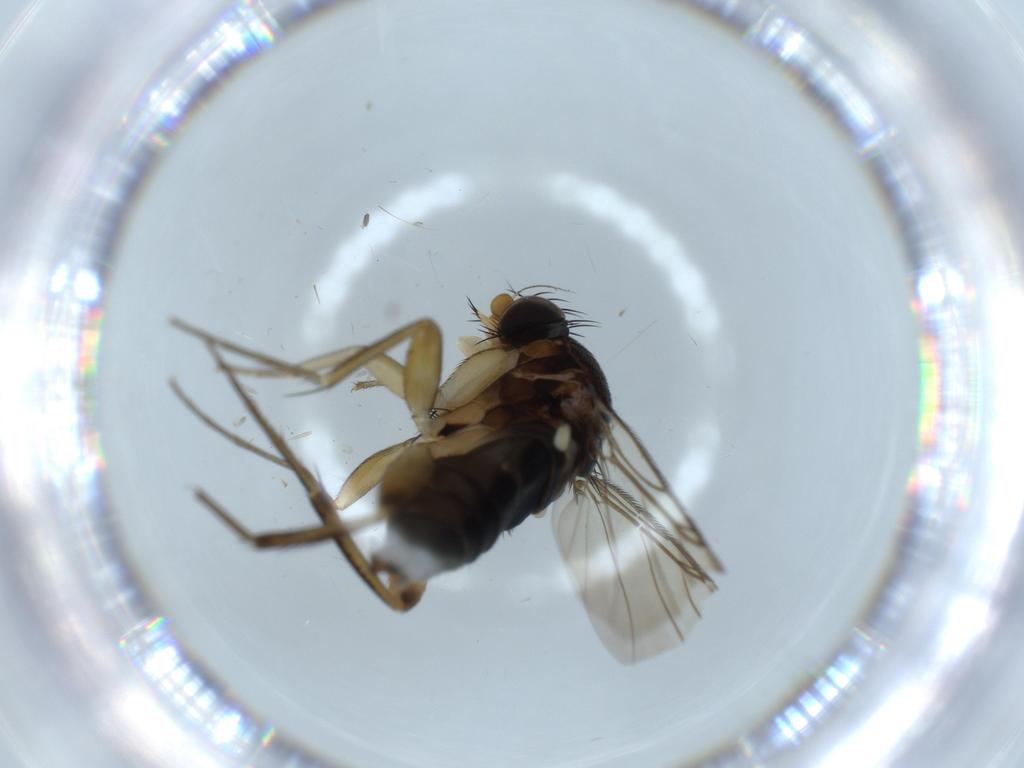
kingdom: Animalia
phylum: Arthropoda
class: Insecta
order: Diptera
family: Phoridae
